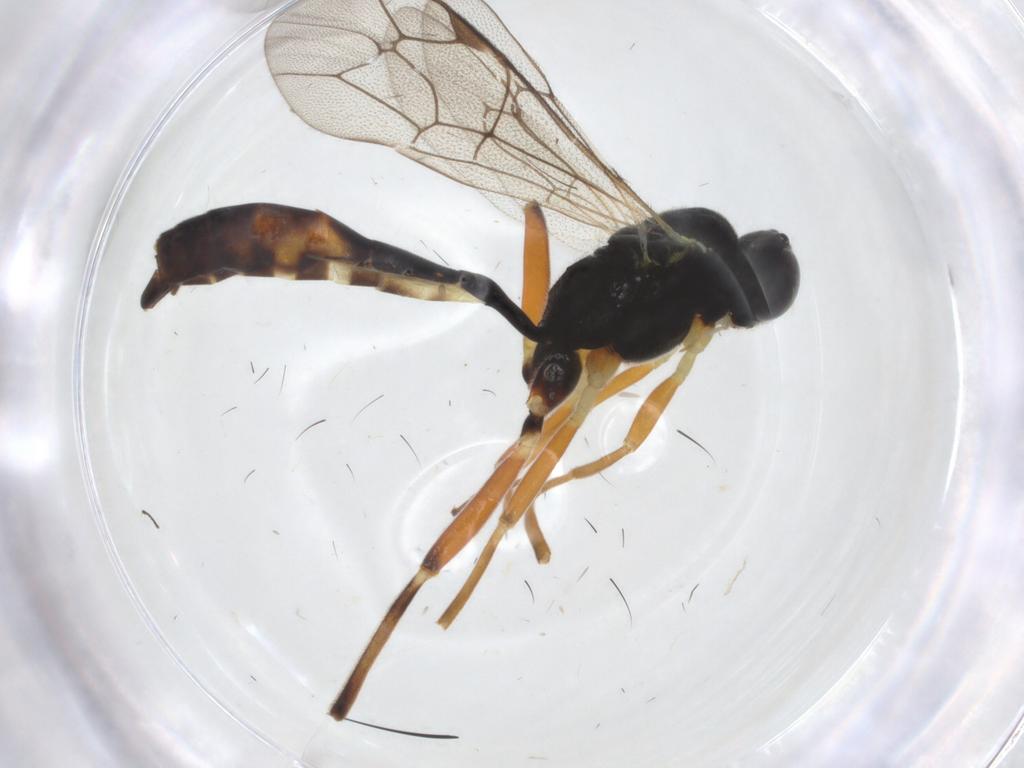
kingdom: Animalia
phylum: Arthropoda
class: Insecta
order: Hymenoptera
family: Ichneumonidae
